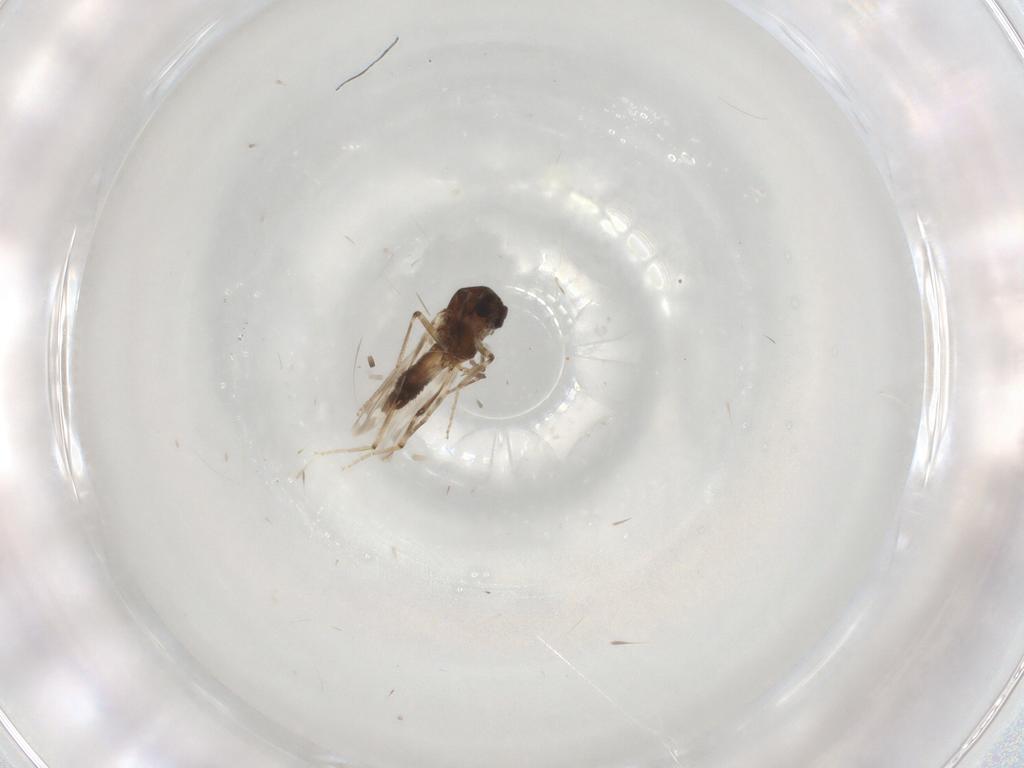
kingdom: Animalia
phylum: Arthropoda
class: Insecta
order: Diptera
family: Ceratopogonidae
